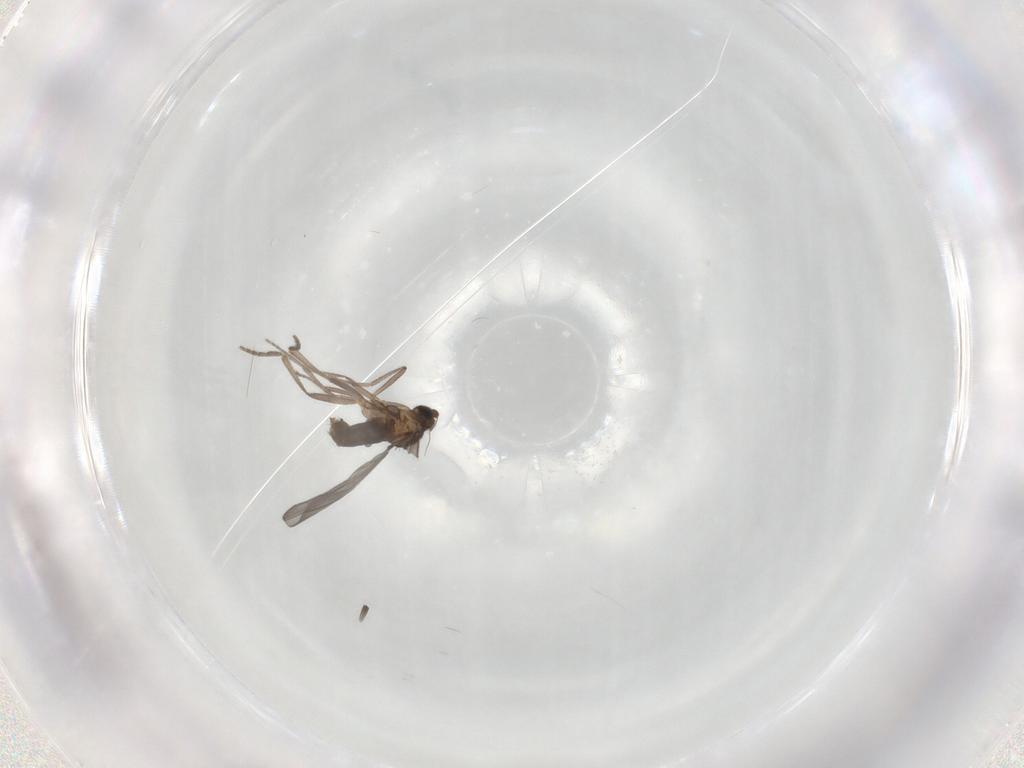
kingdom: Animalia
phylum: Arthropoda
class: Insecta
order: Diptera
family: Phoridae
